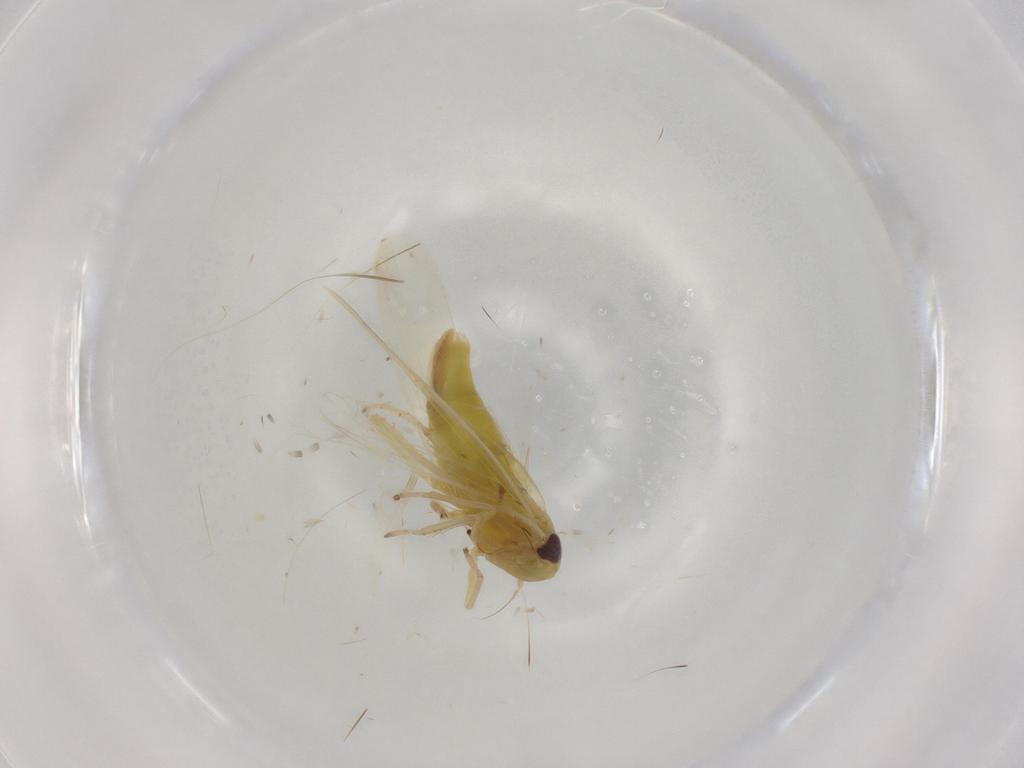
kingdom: Animalia
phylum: Arthropoda
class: Insecta
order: Hemiptera
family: Cicadellidae
